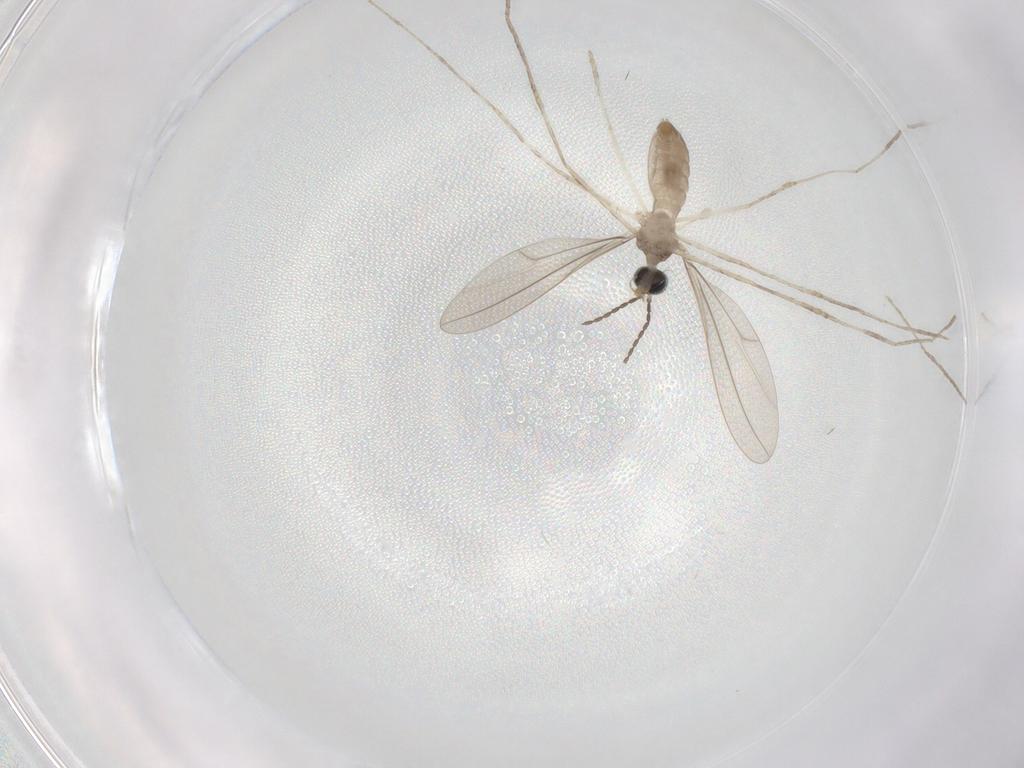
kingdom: Animalia
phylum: Arthropoda
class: Insecta
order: Diptera
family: Cecidomyiidae
